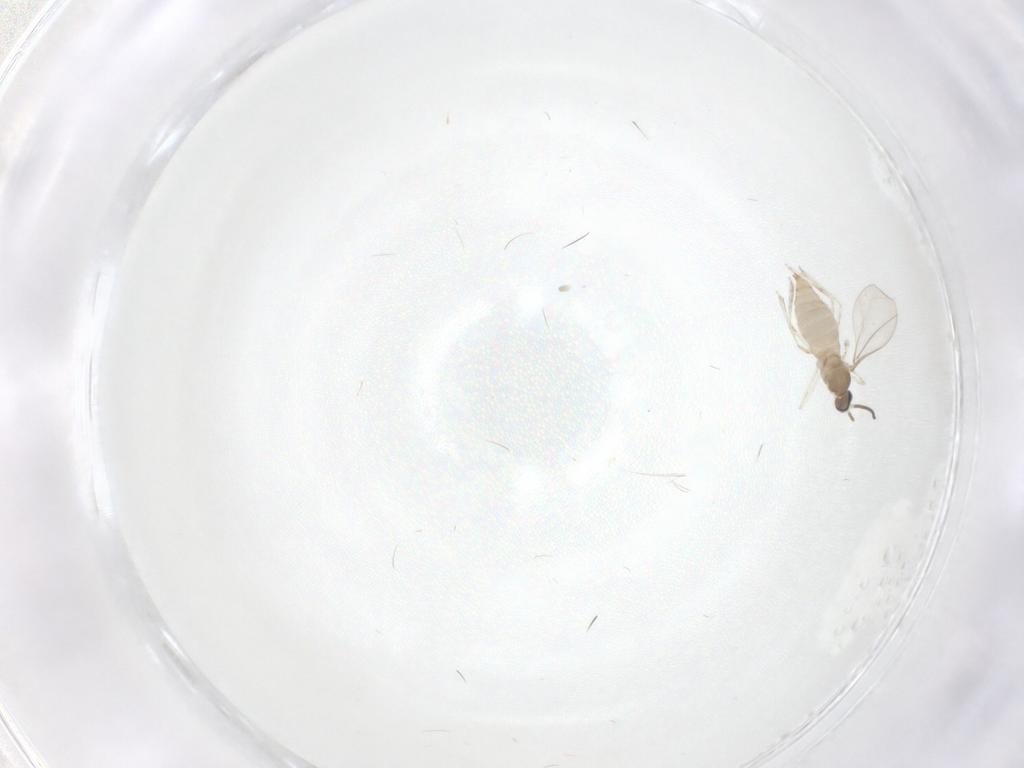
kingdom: Animalia
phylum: Arthropoda
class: Insecta
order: Diptera
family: Cecidomyiidae
